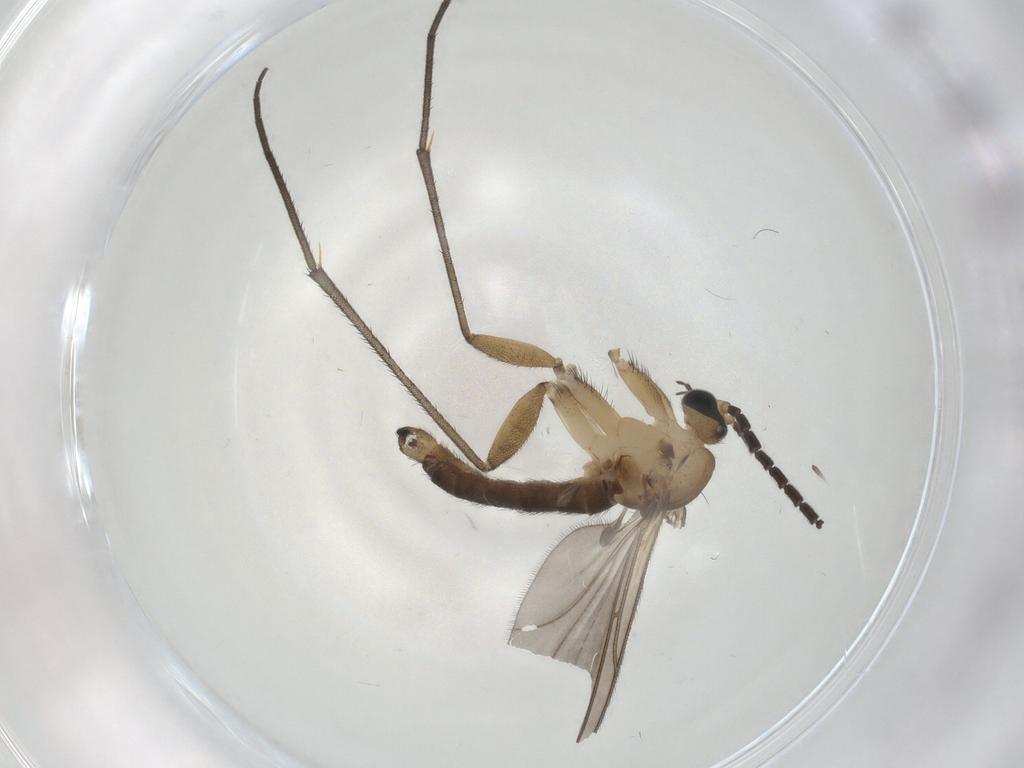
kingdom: Animalia
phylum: Arthropoda
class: Insecta
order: Diptera
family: Sciaridae
